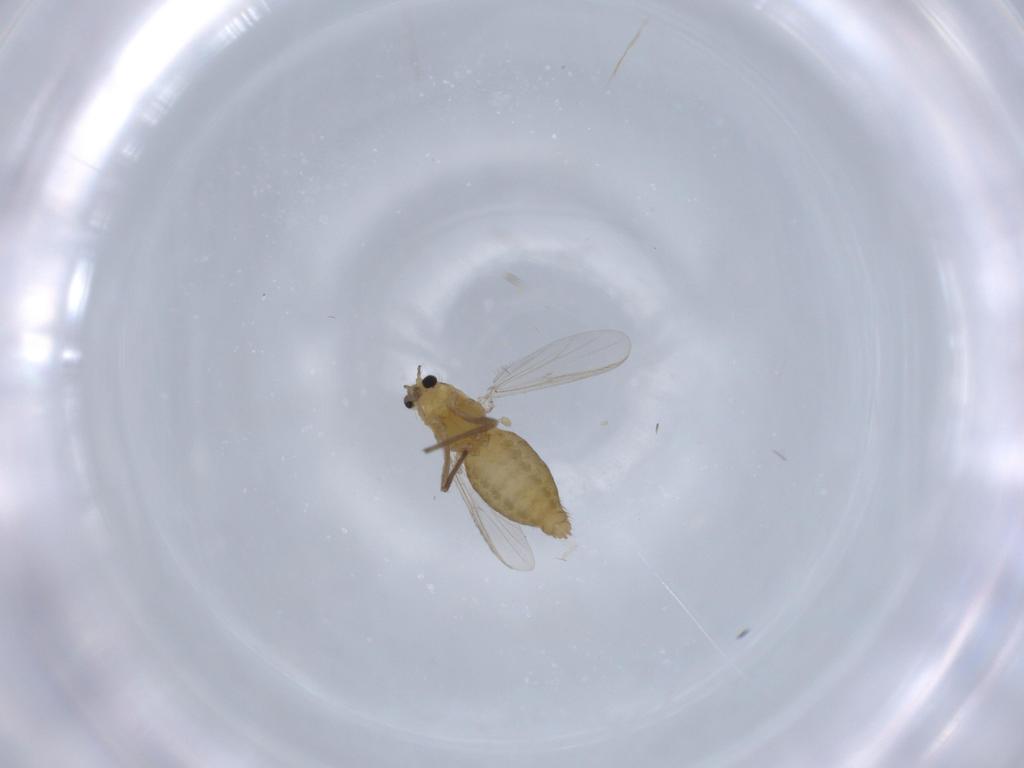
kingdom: Animalia
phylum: Arthropoda
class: Insecta
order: Diptera
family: Chironomidae
